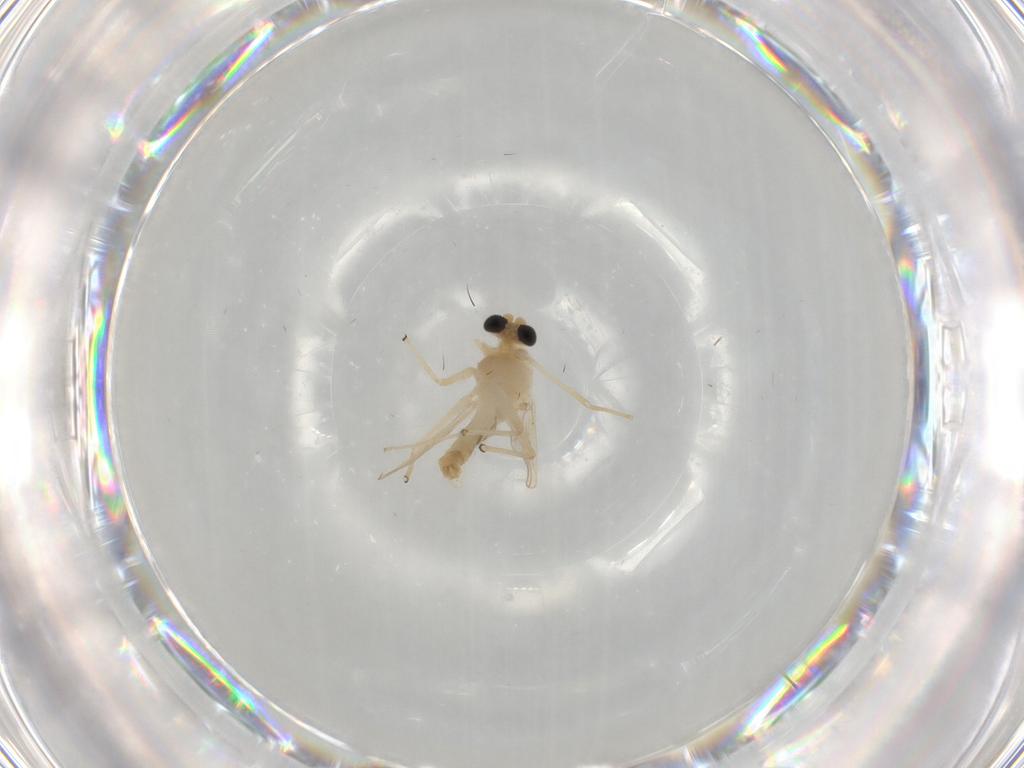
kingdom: Animalia
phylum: Arthropoda
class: Insecta
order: Diptera
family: Chironomidae
